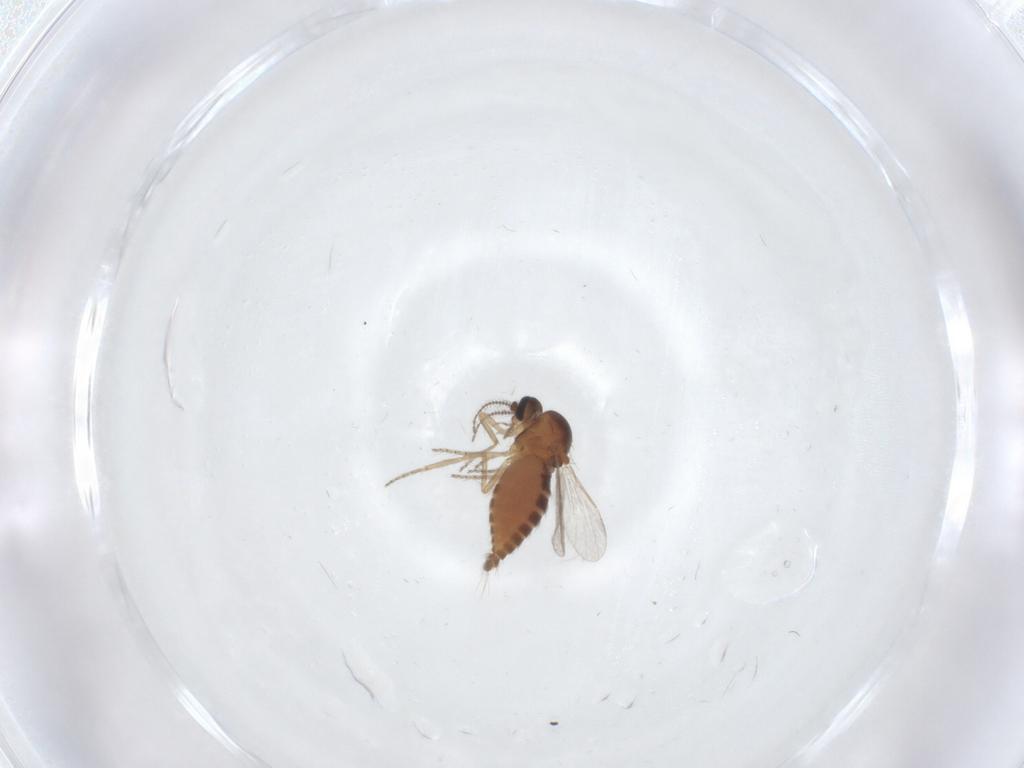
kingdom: Animalia
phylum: Arthropoda
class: Insecta
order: Diptera
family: Ceratopogonidae
